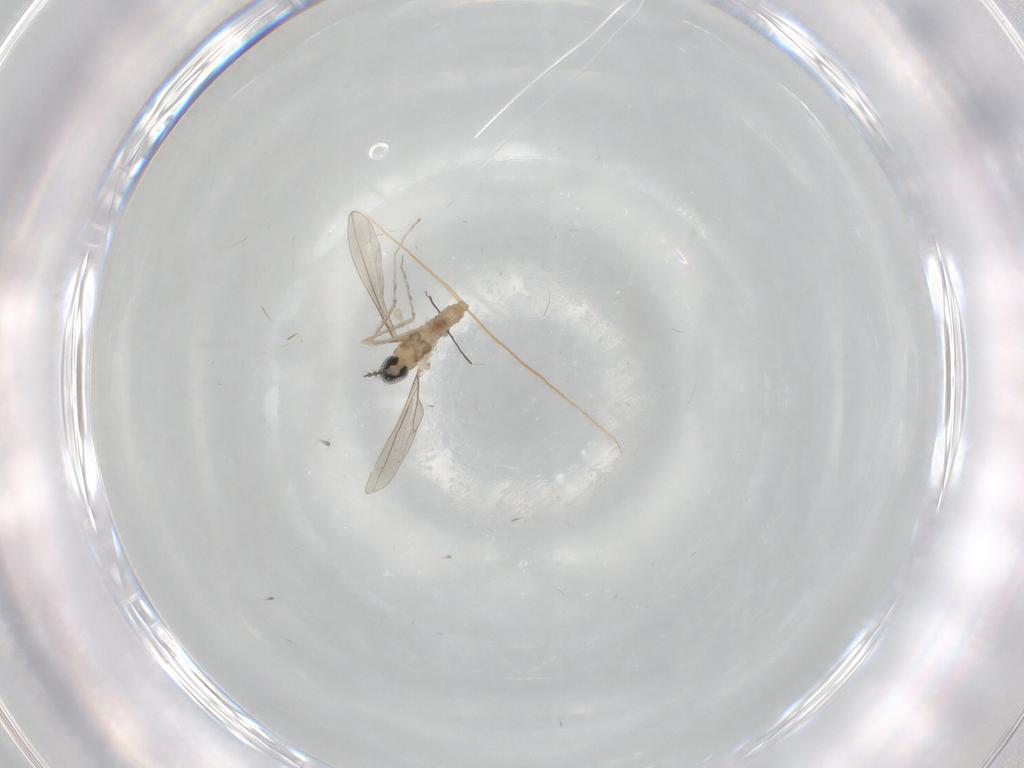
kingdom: Animalia
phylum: Arthropoda
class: Insecta
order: Diptera
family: Cecidomyiidae
